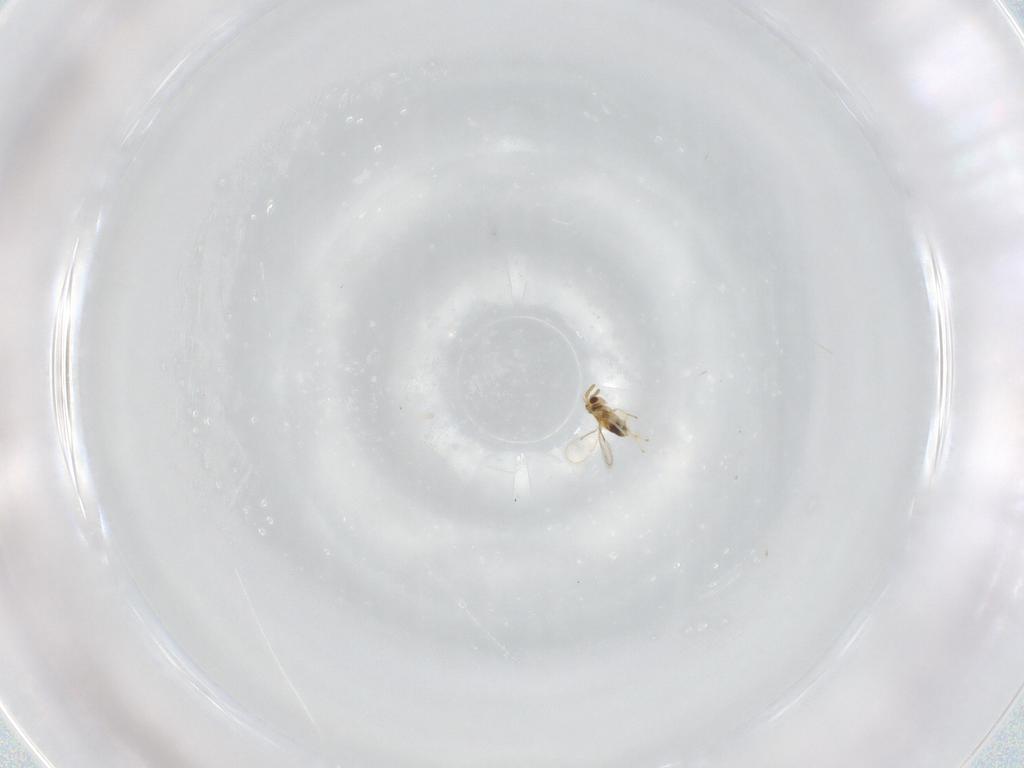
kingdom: Animalia
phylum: Arthropoda
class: Insecta
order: Hymenoptera
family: Aphelinidae
